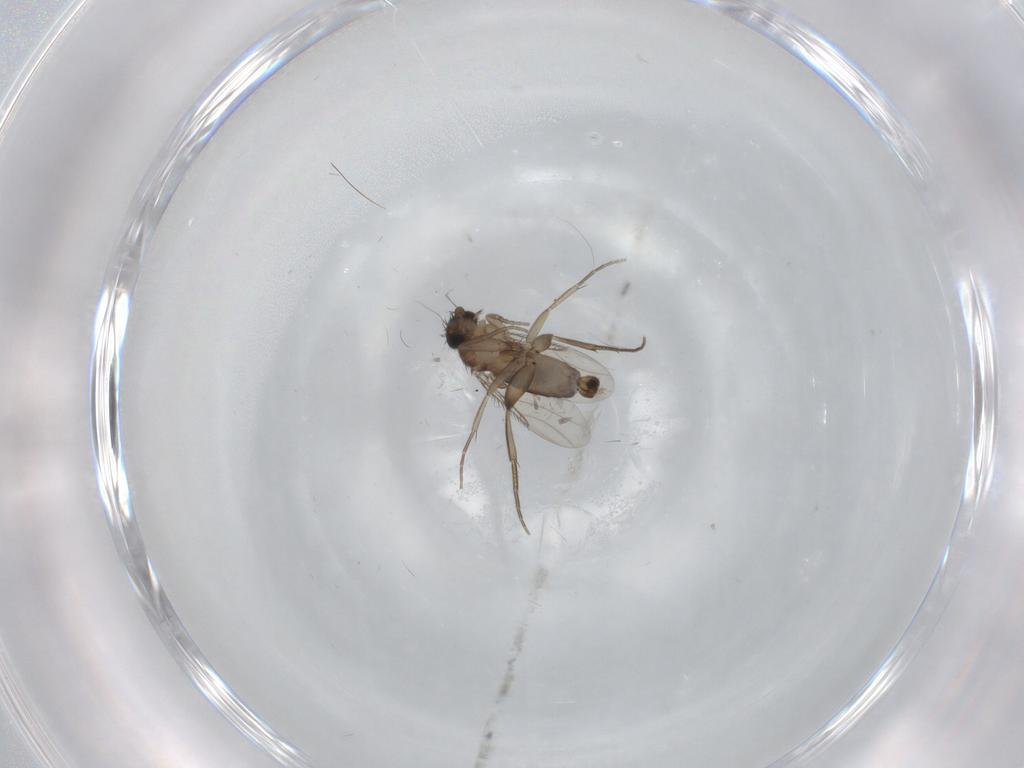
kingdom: Animalia
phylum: Arthropoda
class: Insecta
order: Diptera
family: Phoridae
